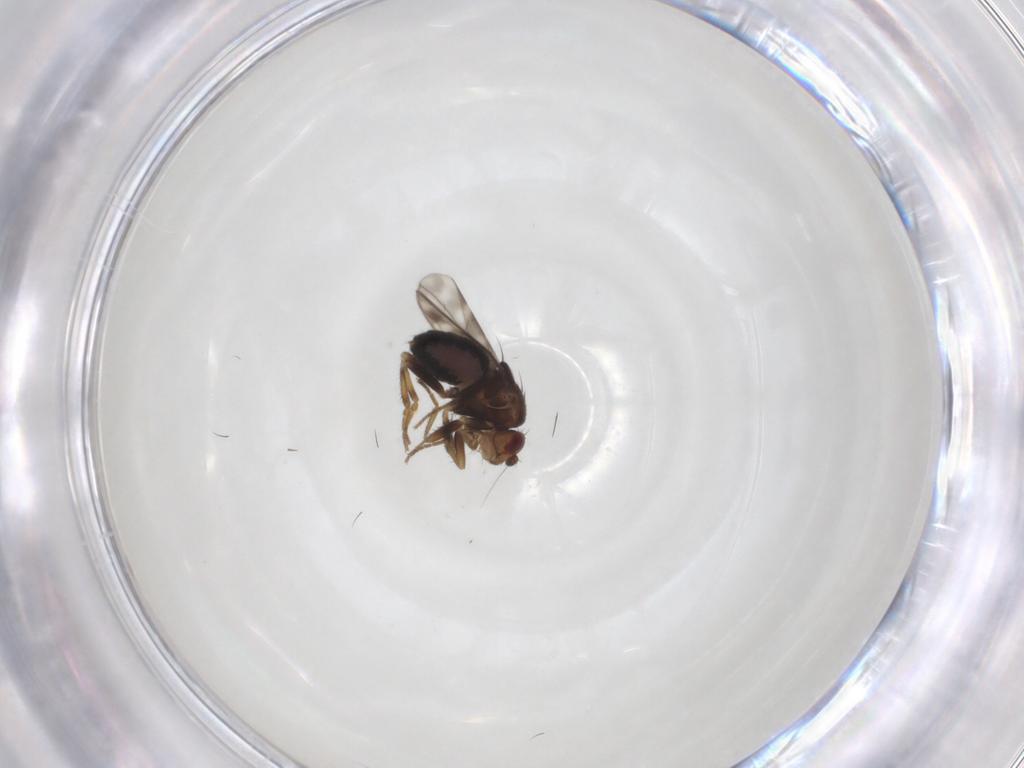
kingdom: Animalia
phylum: Arthropoda
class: Insecta
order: Diptera
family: Sphaeroceridae
